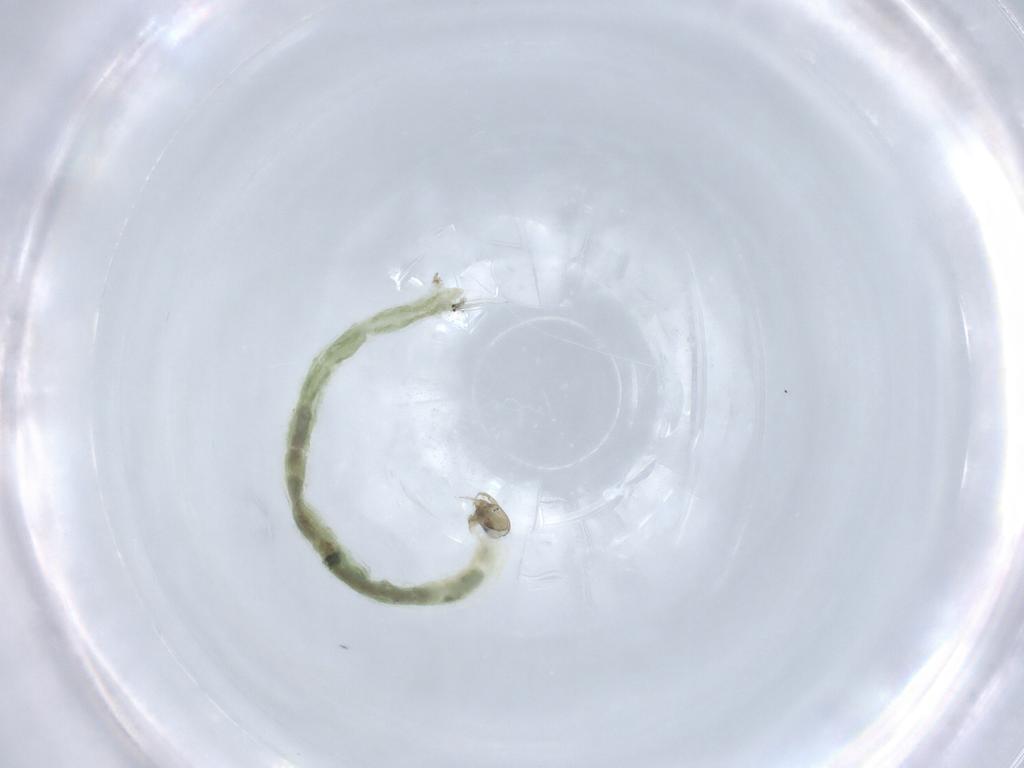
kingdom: Animalia
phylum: Arthropoda
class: Insecta
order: Diptera
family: Chironomidae
